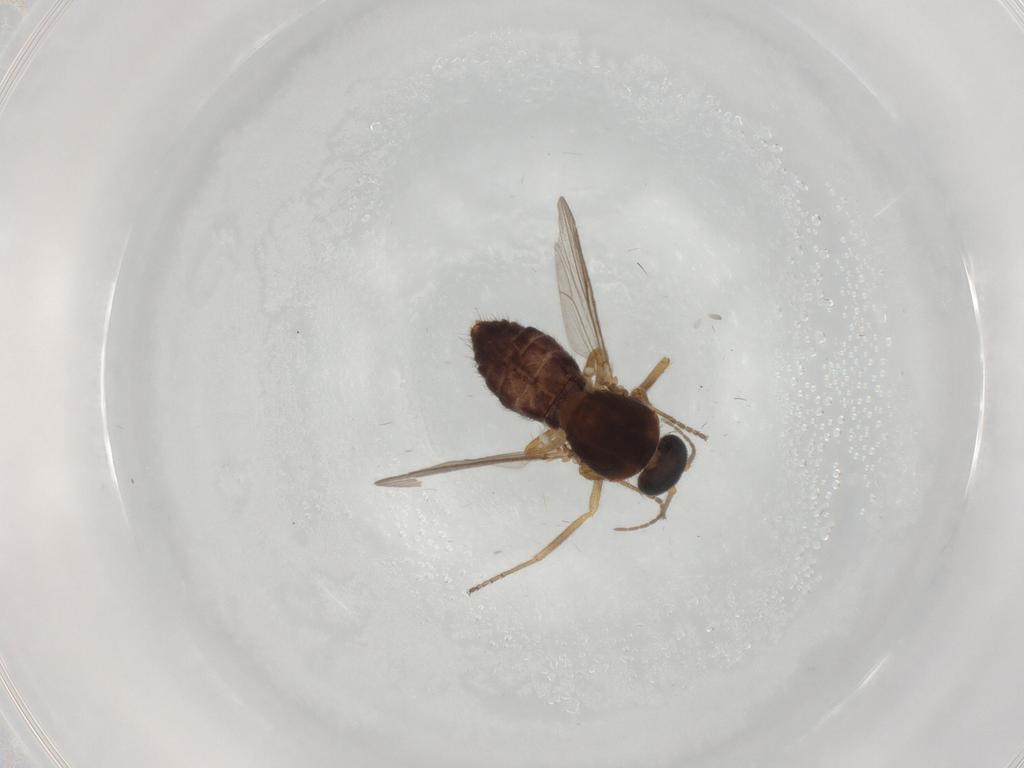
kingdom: Animalia
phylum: Arthropoda
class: Insecta
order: Diptera
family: Ceratopogonidae
